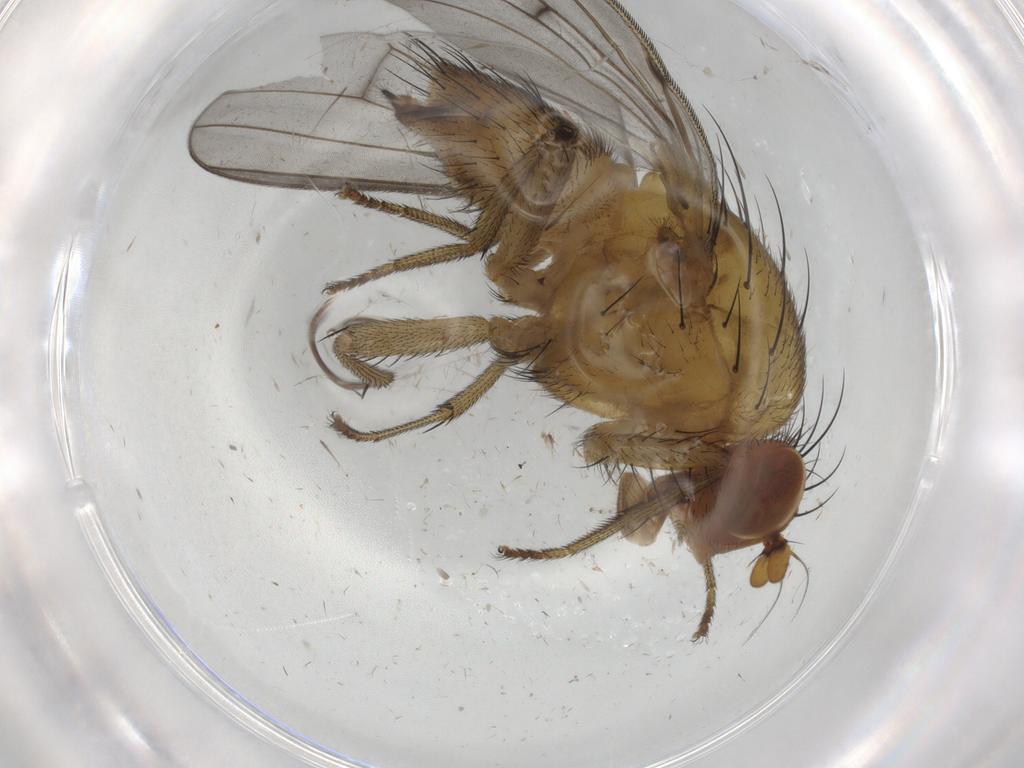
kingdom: Animalia
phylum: Arthropoda
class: Insecta
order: Diptera
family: Cecidomyiidae
